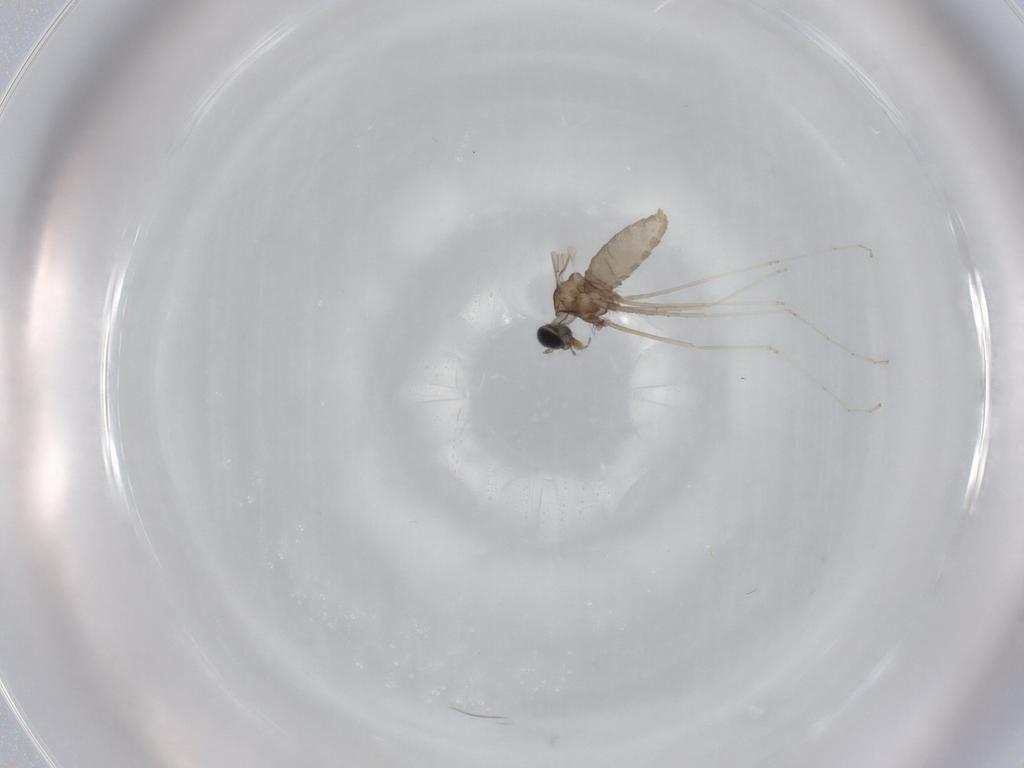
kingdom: Animalia
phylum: Arthropoda
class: Insecta
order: Diptera
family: Cecidomyiidae
